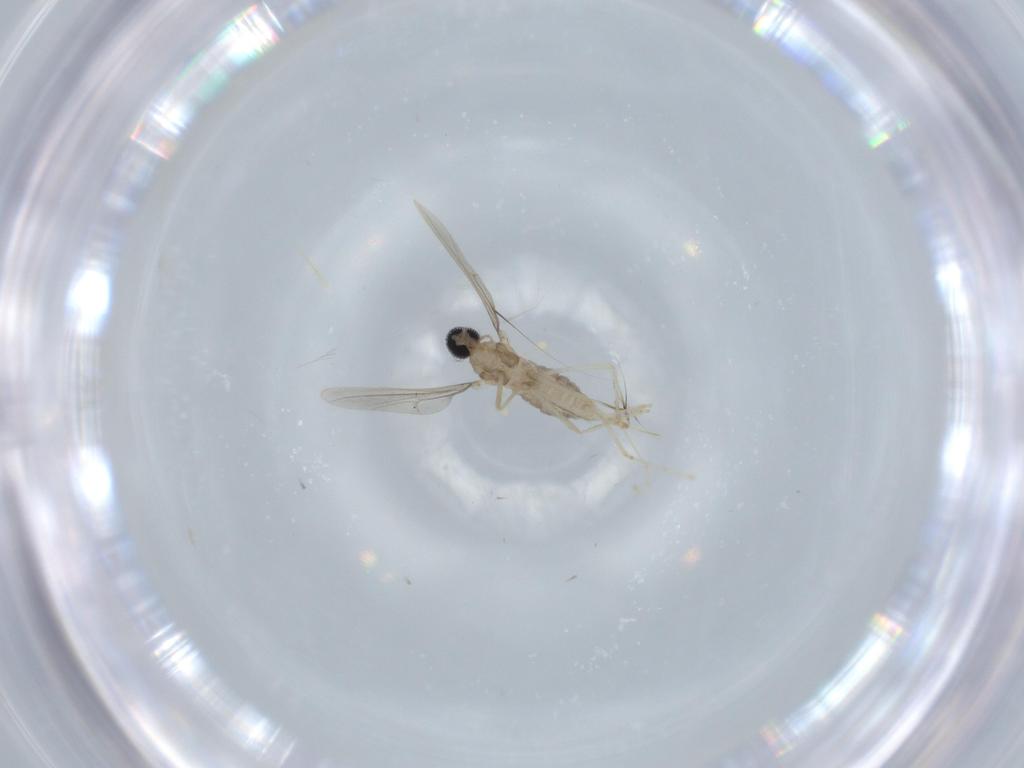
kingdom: Animalia
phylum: Arthropoda
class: Insecta
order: Diptera
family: Cecidomyiidae
